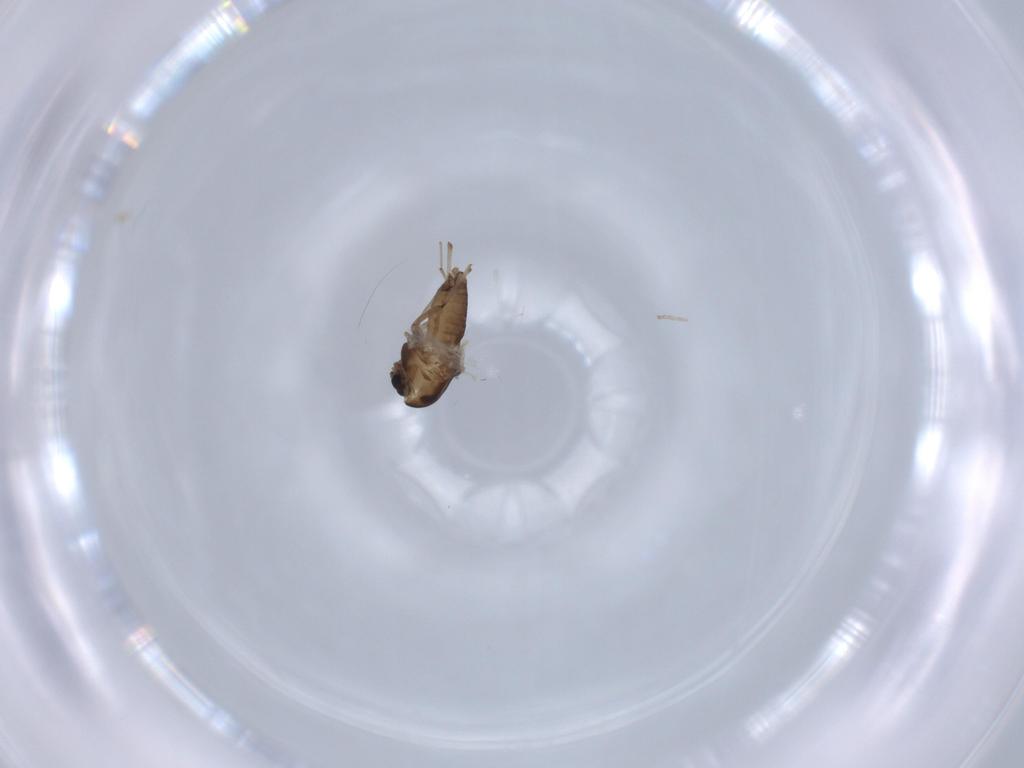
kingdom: Animalia
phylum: Arthropoda
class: Insecta
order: Diptera
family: Chironomidae
